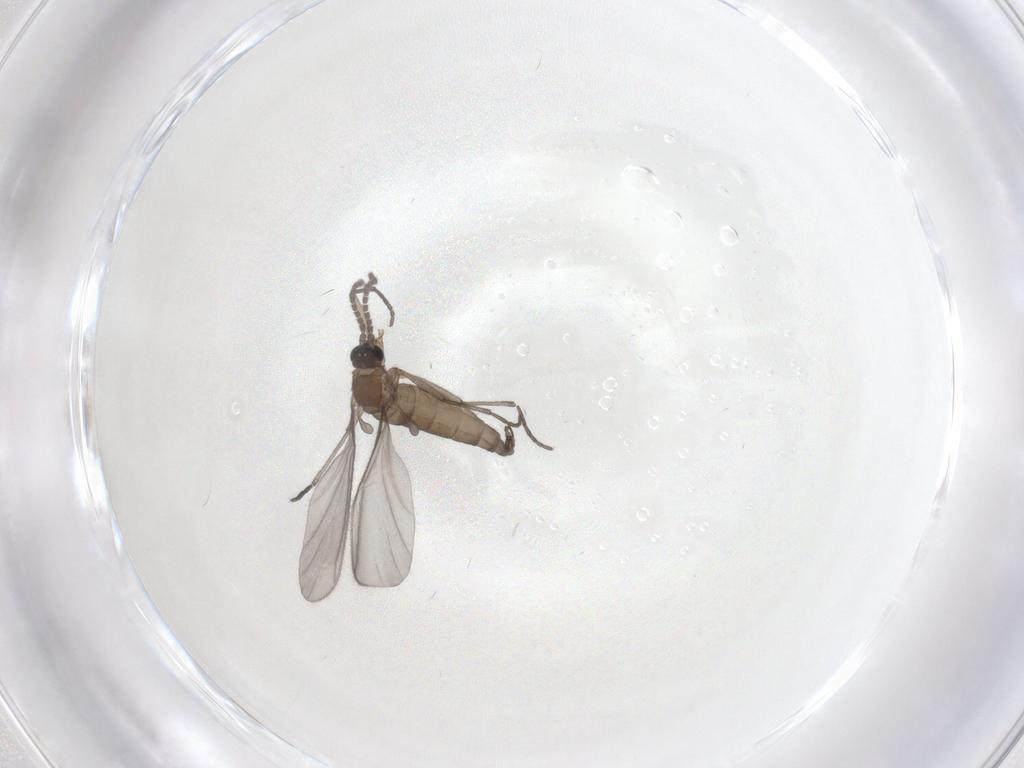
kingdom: Animalia
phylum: Arthropoda
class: Insecta
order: Diptera
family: Sciaridae
